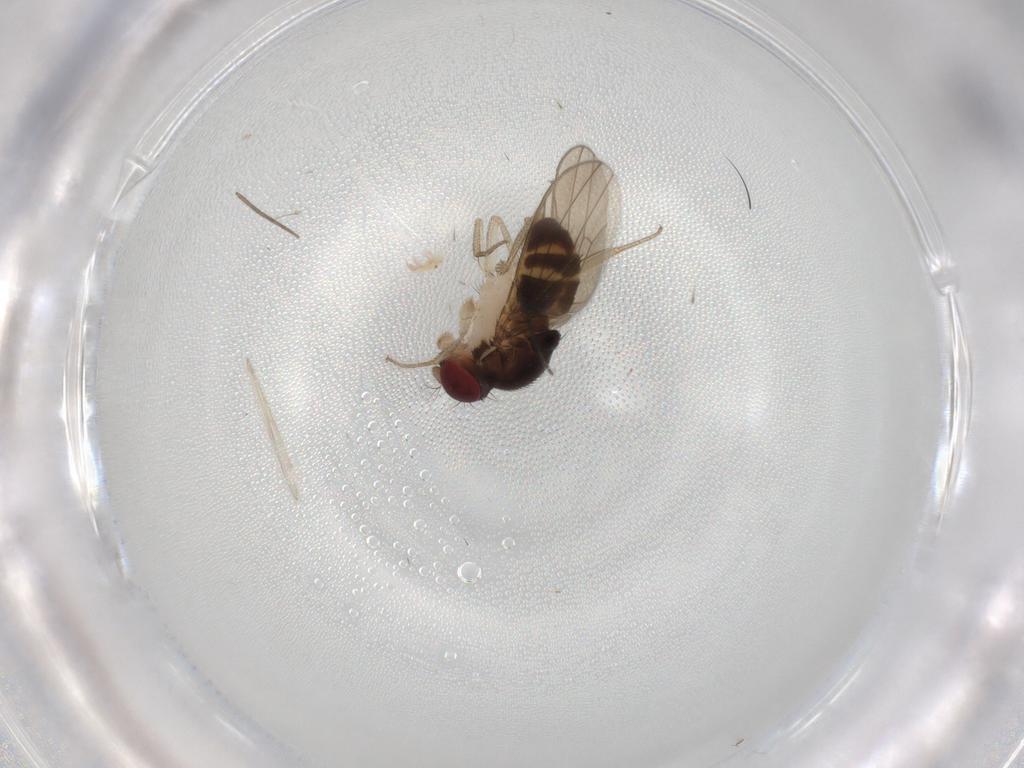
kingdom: Animalia
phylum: Arthropoda
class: Insecta
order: Diptera
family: Drosophilidae
